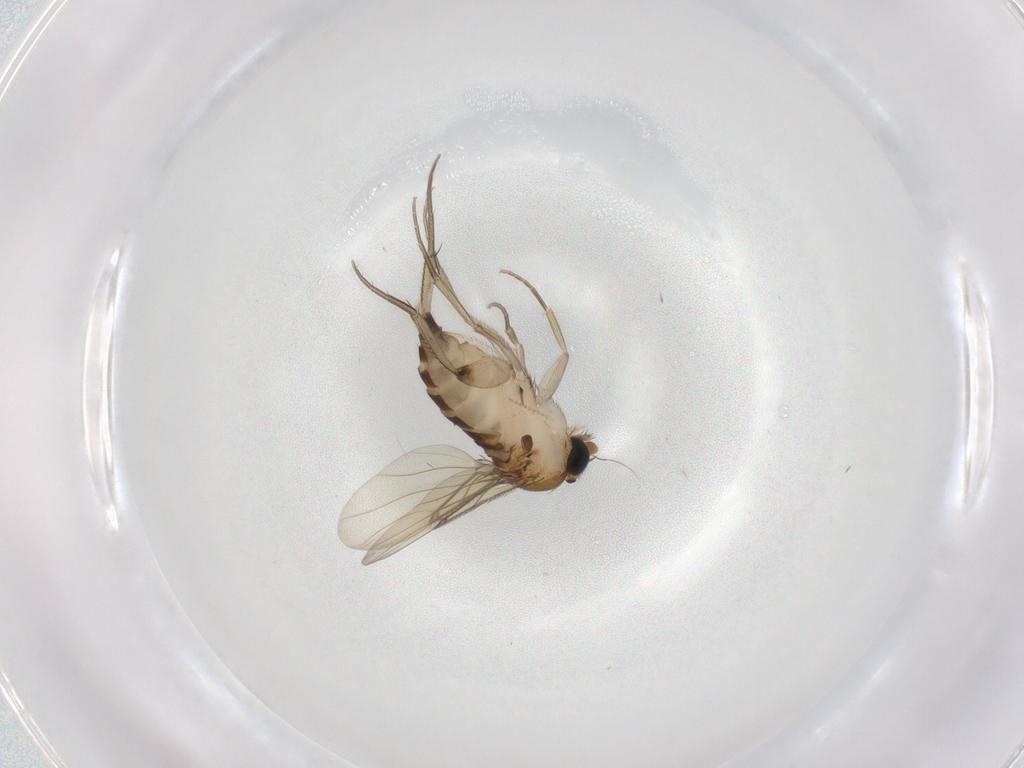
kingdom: Animalia
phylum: Arthropoda
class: Insecta
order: Diptera
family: Phoridae
